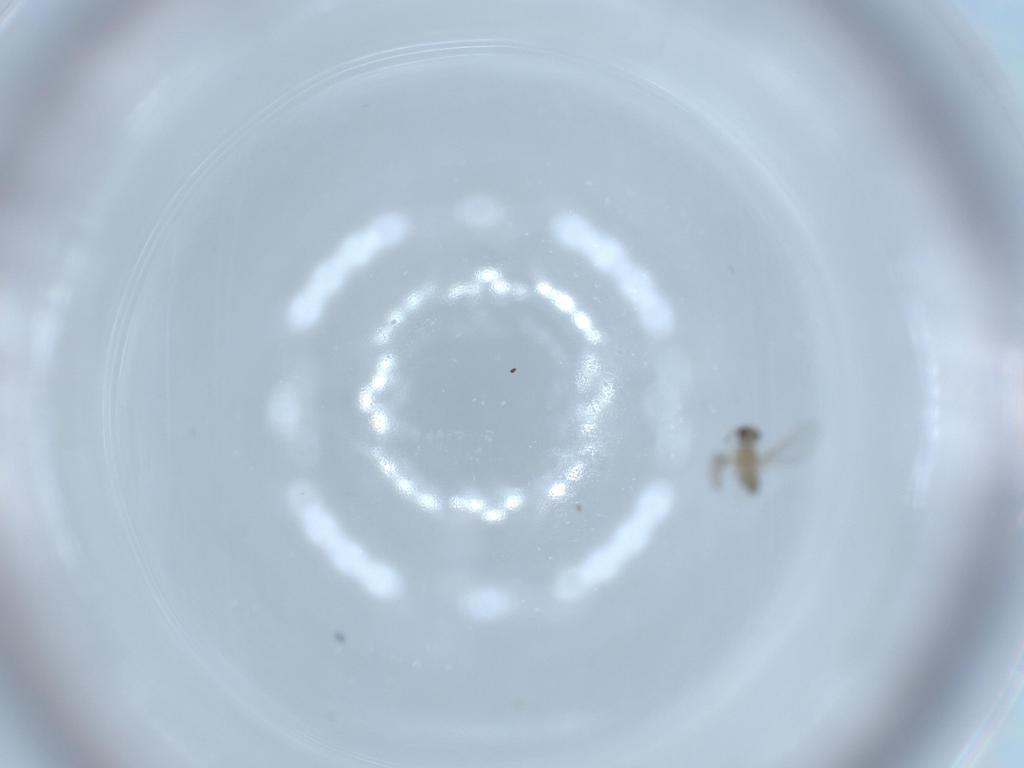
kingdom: Animalia
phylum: Arthropoda
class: Insecta
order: Diptera
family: Cecidomyiidae
